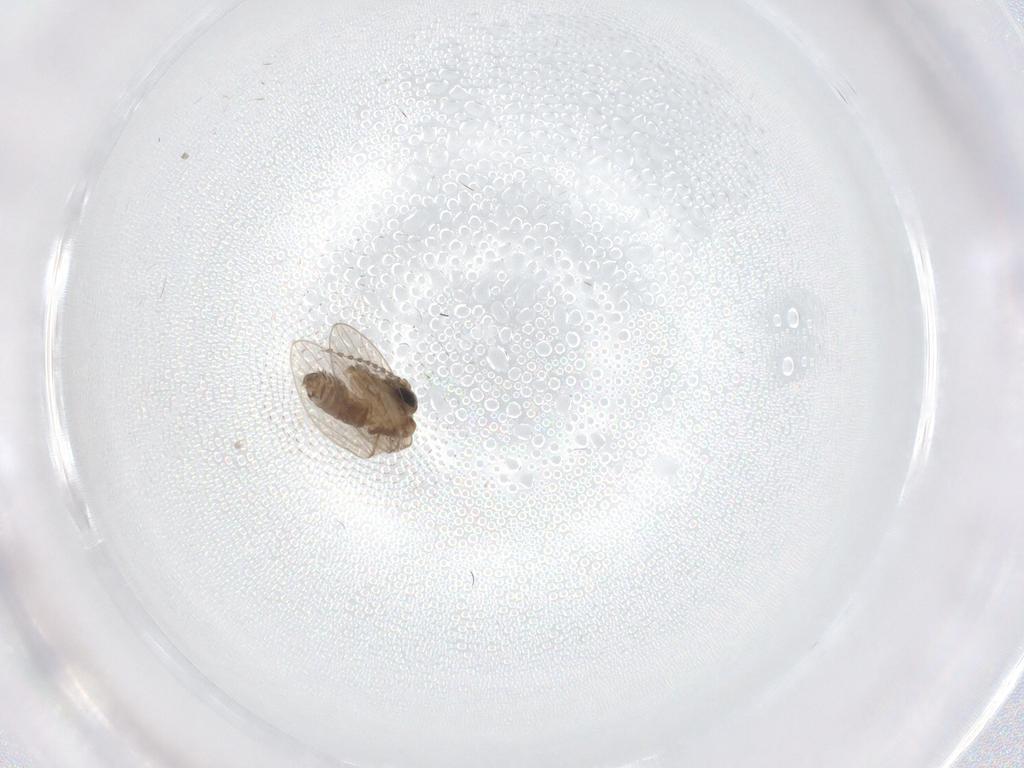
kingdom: Animalia
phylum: Arthropoda
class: Insecta
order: Diptera
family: Chironomidae
